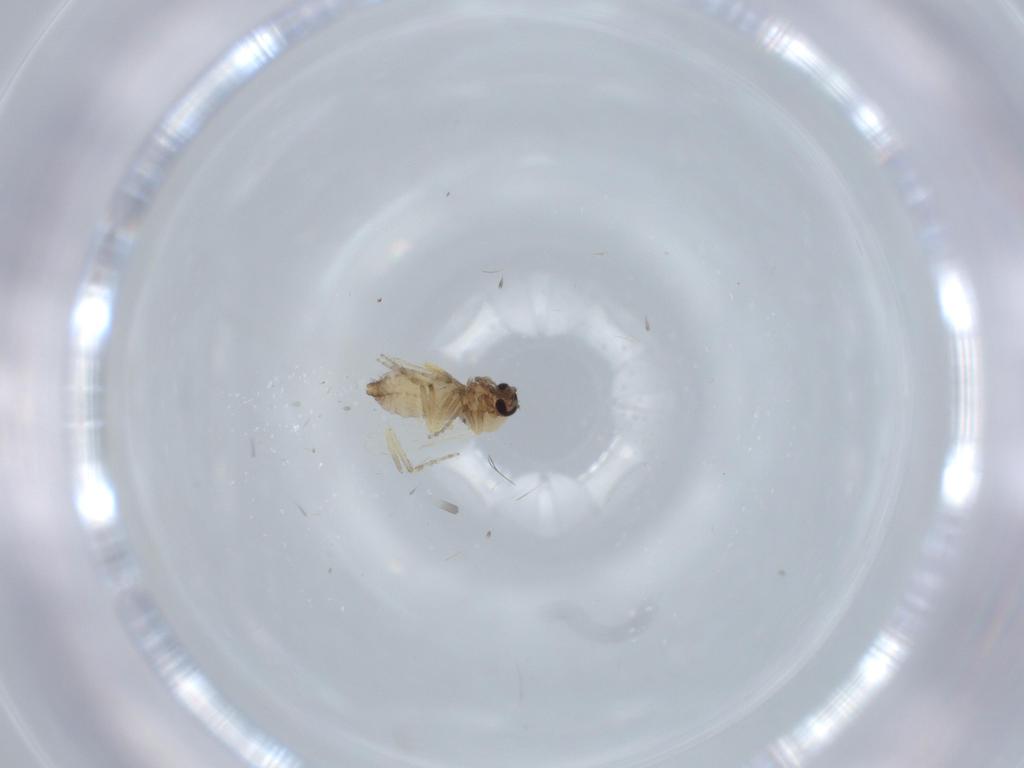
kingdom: Animalia
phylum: Arthropoda
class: Insecta
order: Diptera
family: Ceratopogonidae
